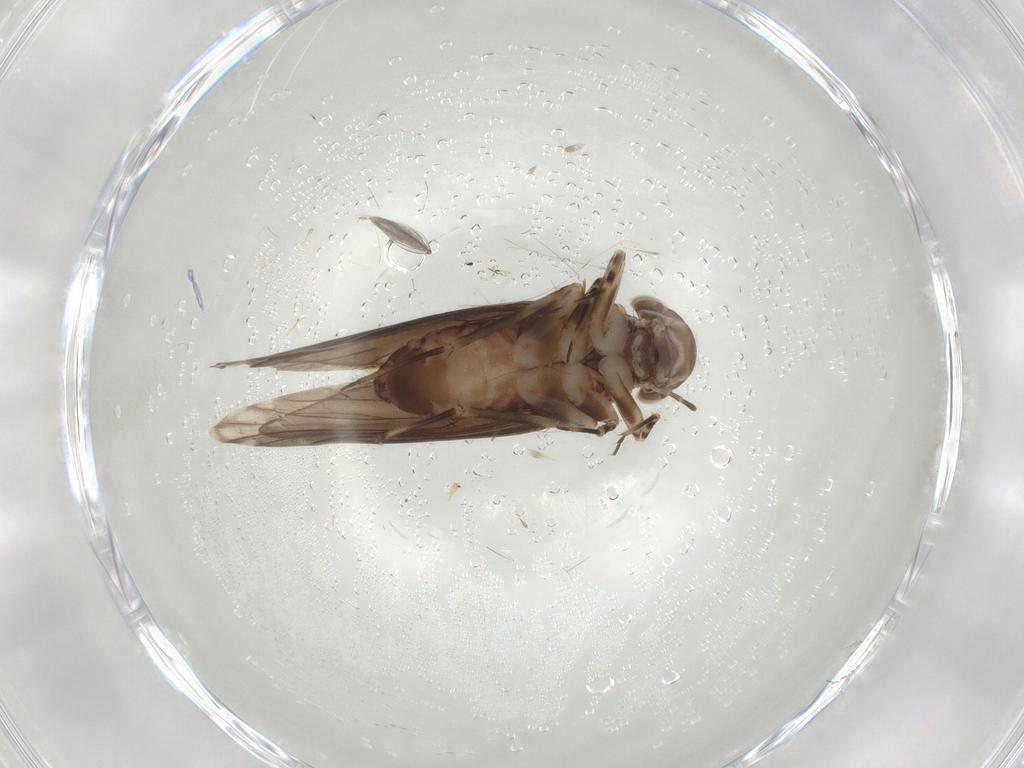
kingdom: Animalia
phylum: Arthropoda
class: Insecta
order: Psocodea
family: Amphientomidae
